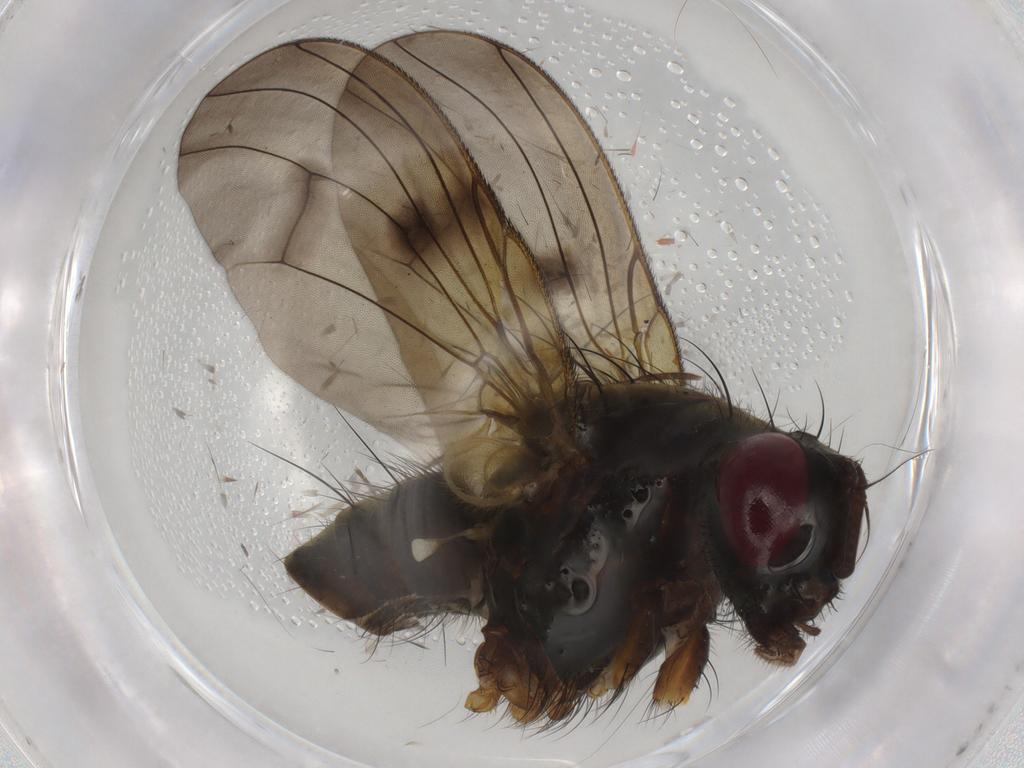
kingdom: Animalia
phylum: Arthropoda
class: Insecta
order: Diptera
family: Muscidae
